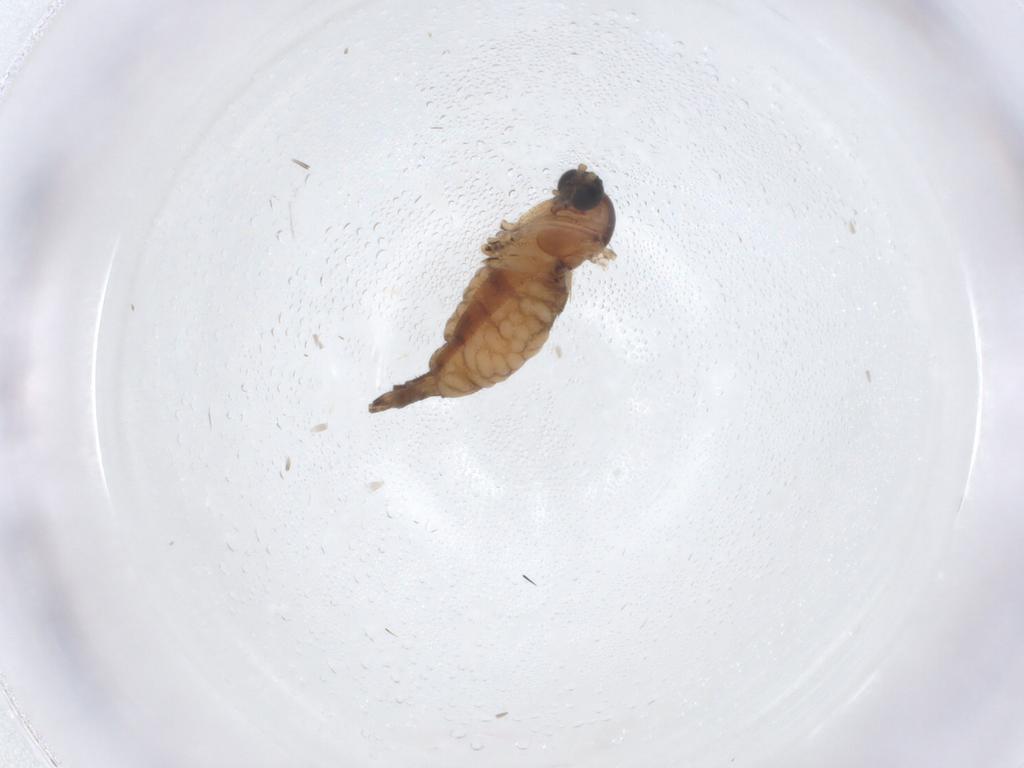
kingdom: Animalia
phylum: Arthropoda
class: Insecta
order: Diptera
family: Sciaridae
